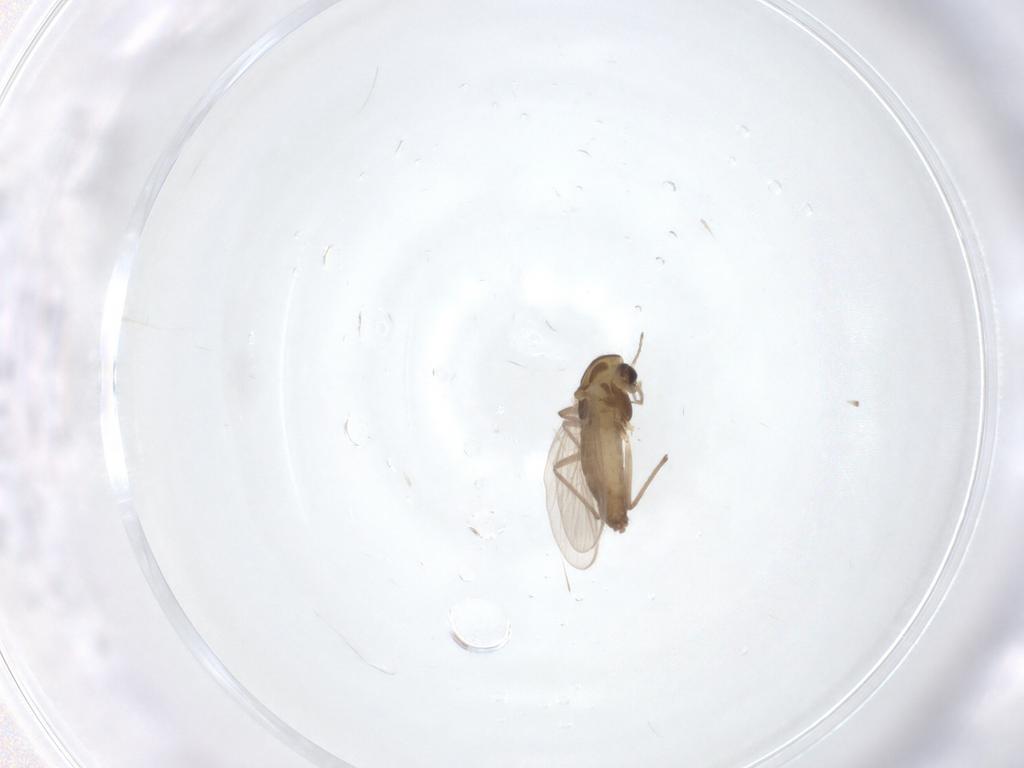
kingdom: Animalia
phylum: Arthropoda
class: Insecta
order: Diptera
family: Chironomidae
